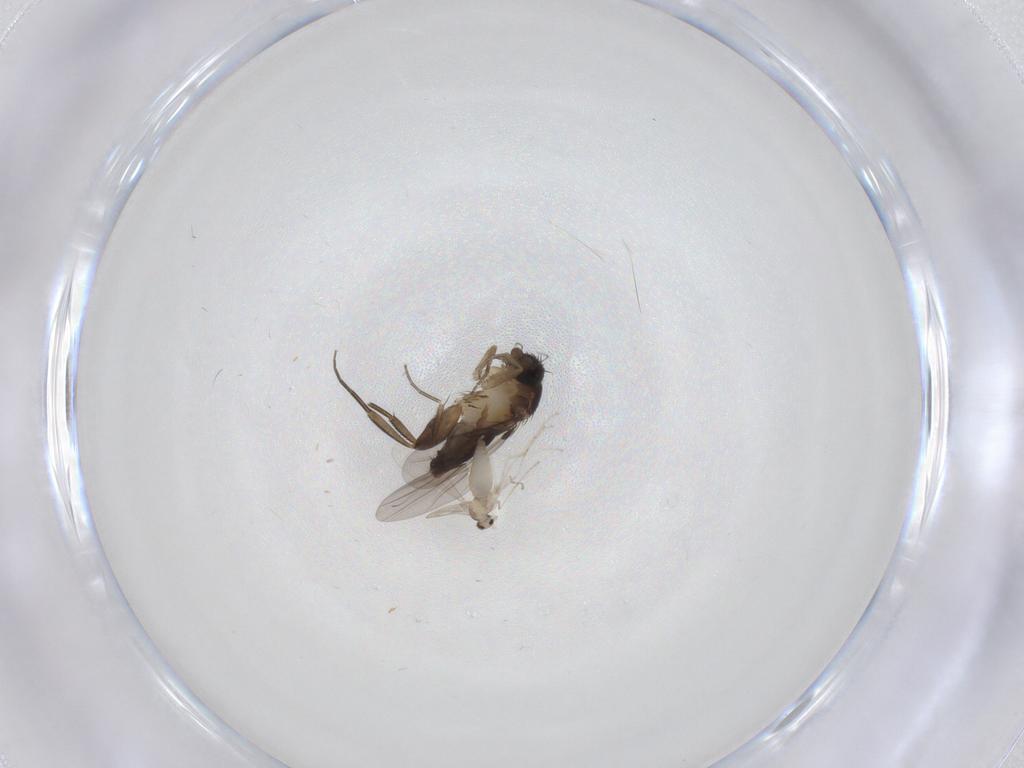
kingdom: Animalia
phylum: Arthropoda
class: Insecta
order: Diptera
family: Phoridae
